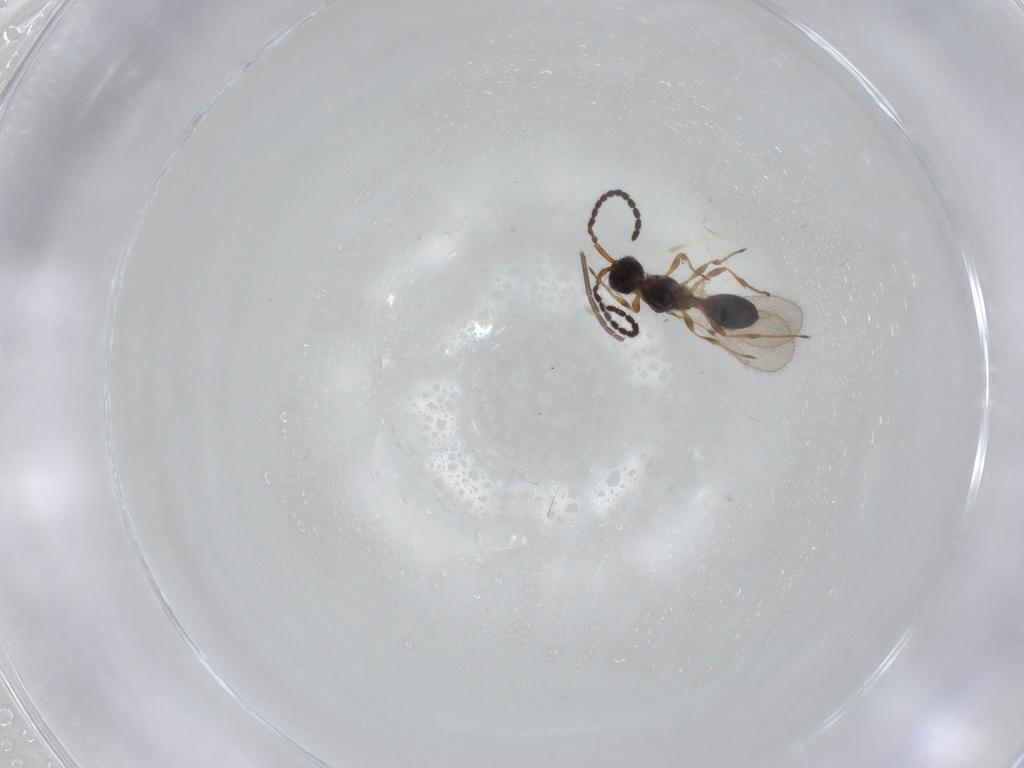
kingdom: Animalia
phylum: Arthropoda
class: Insecta
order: Hymenoptera
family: Diapriidae
